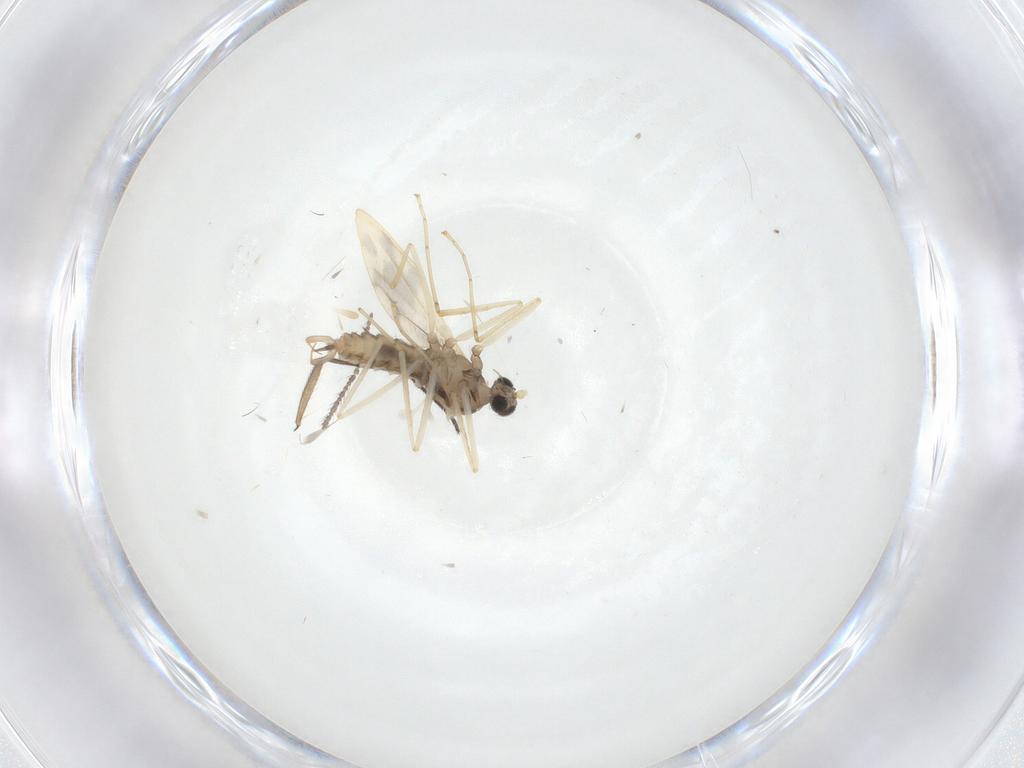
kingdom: Animalia
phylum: Arthropoda
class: Insecta
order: Diptera
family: Cecidomyiidae
